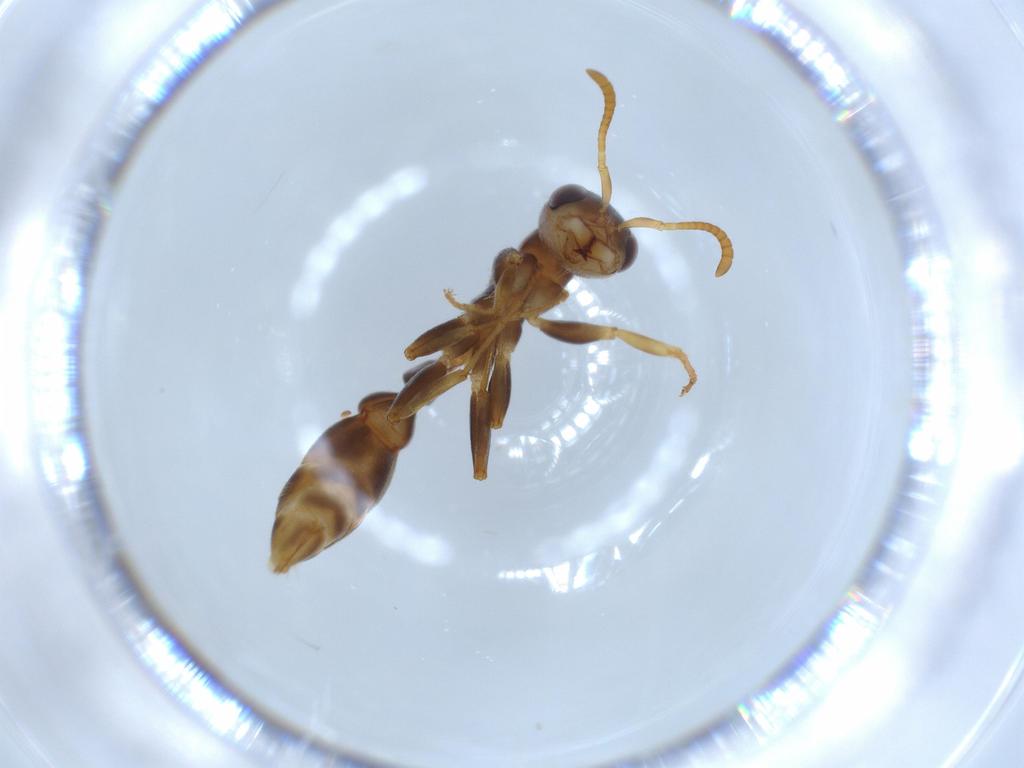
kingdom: Animalia
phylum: Arthropoda
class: Insecta
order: Hymenoptera
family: Formicidae
